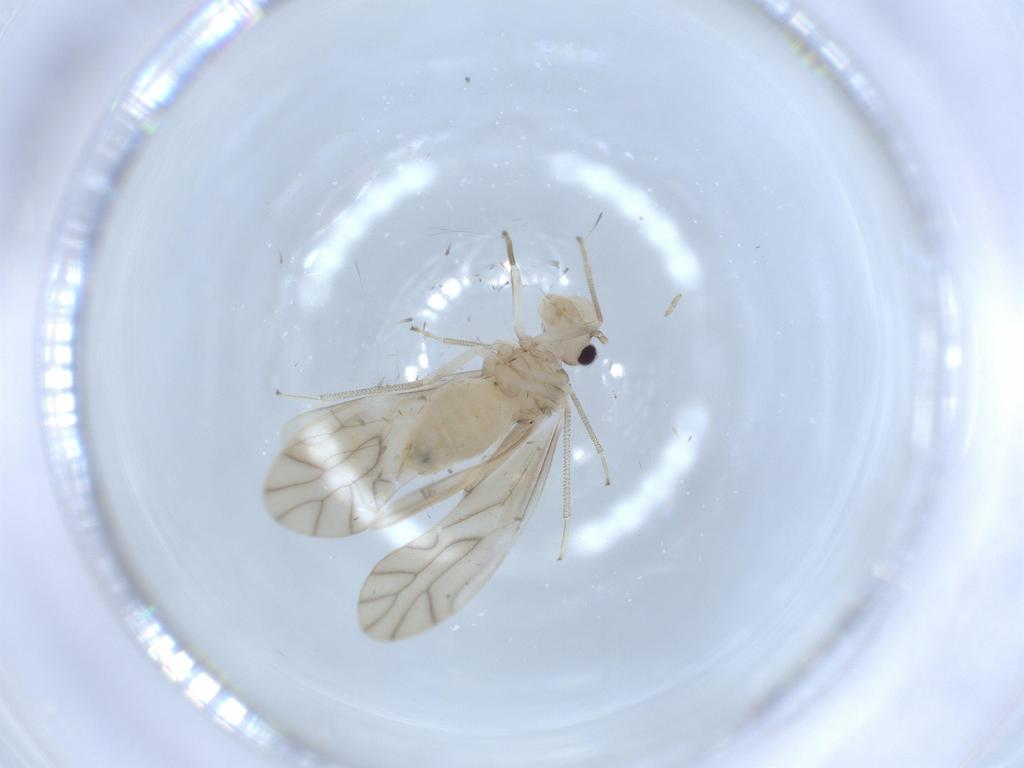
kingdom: Animalia
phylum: Arthropoda
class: Insecta
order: Psocodea
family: Caeciliusidae
